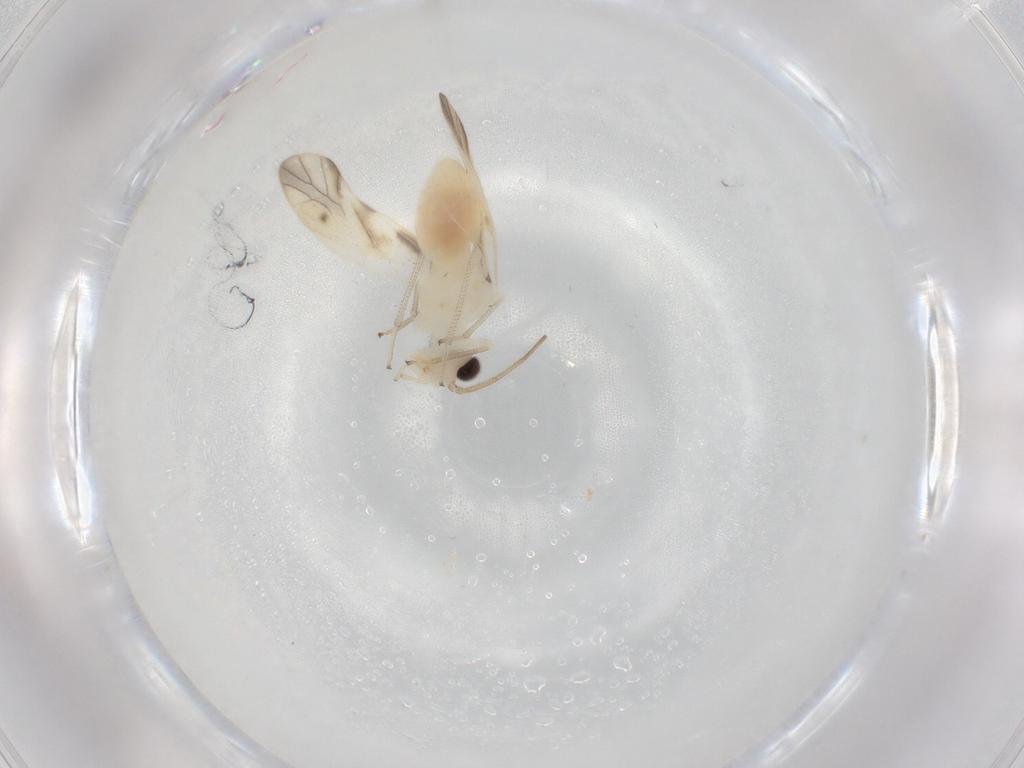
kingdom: Animalia
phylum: Arthropoda
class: Insecta
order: Psocodea
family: Caeciliusidae
